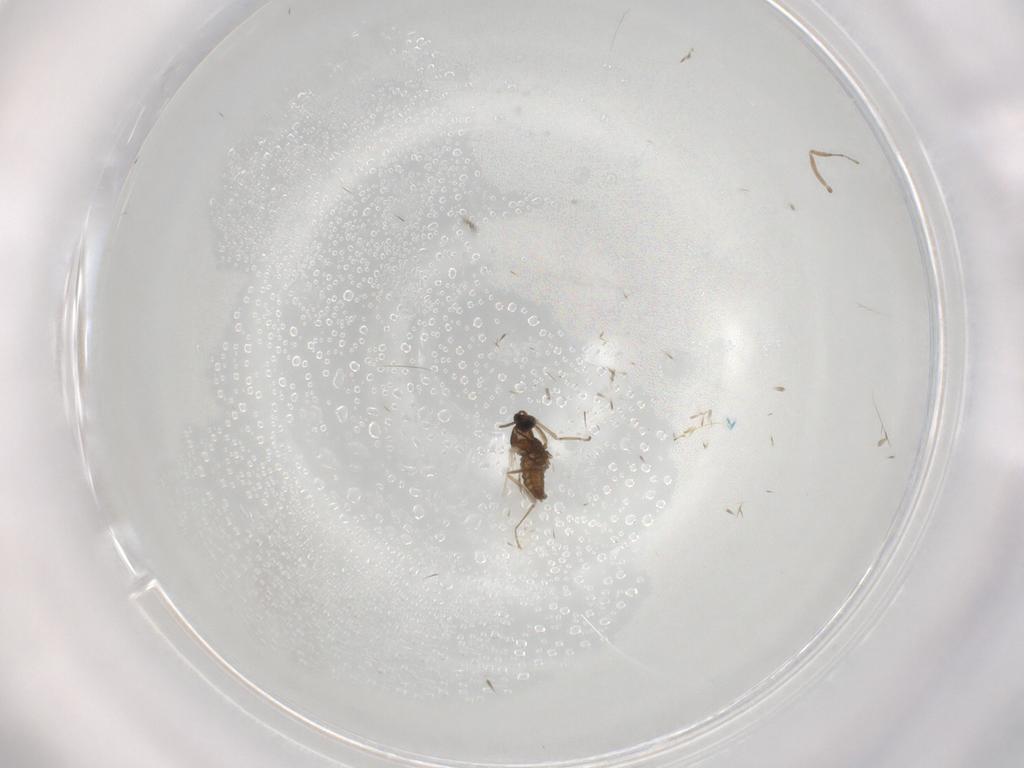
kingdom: Animalia
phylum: Arthropoda
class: Insecta
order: Diptera
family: Cecidomyiidae
